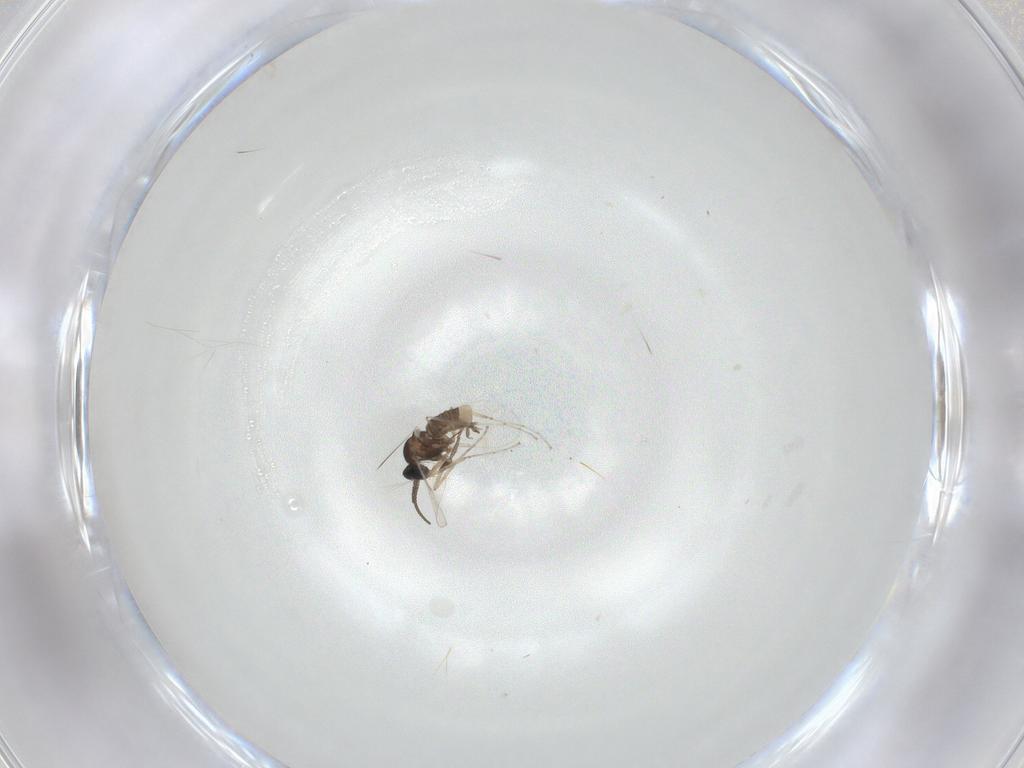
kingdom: Animalia
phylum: Arthropoda
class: Insecta
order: Diptera
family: Cecidomyiidae
